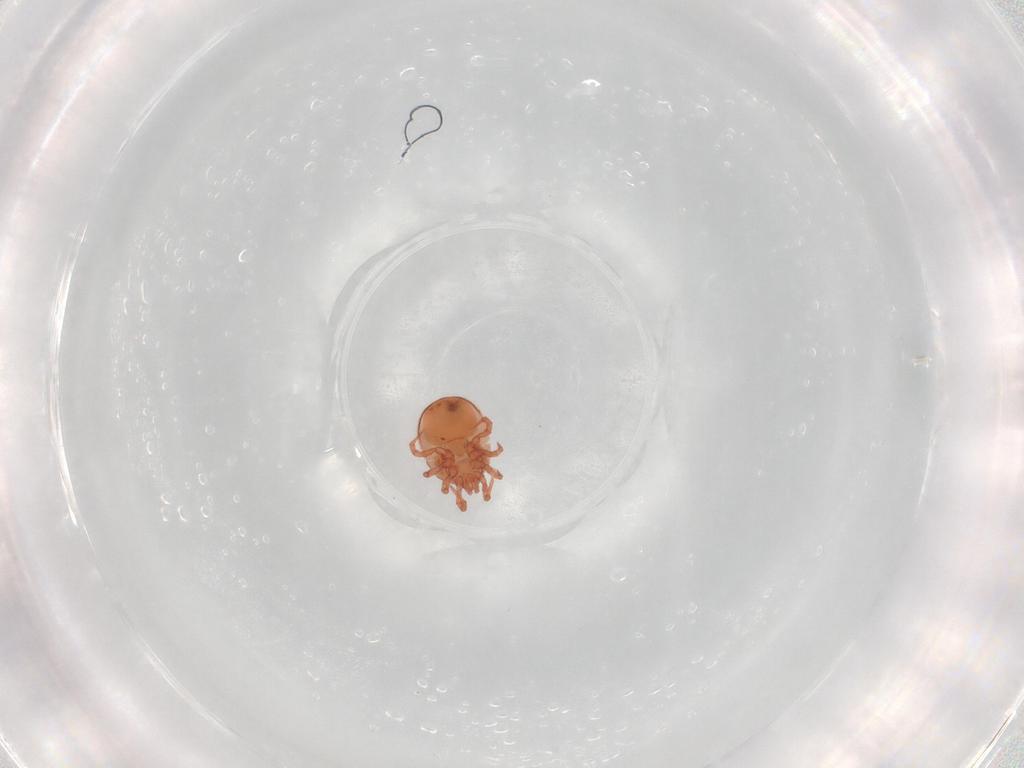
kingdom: Animalia
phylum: Arthropoda
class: Arachnida
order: Mesostigmata
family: Zerconidae
